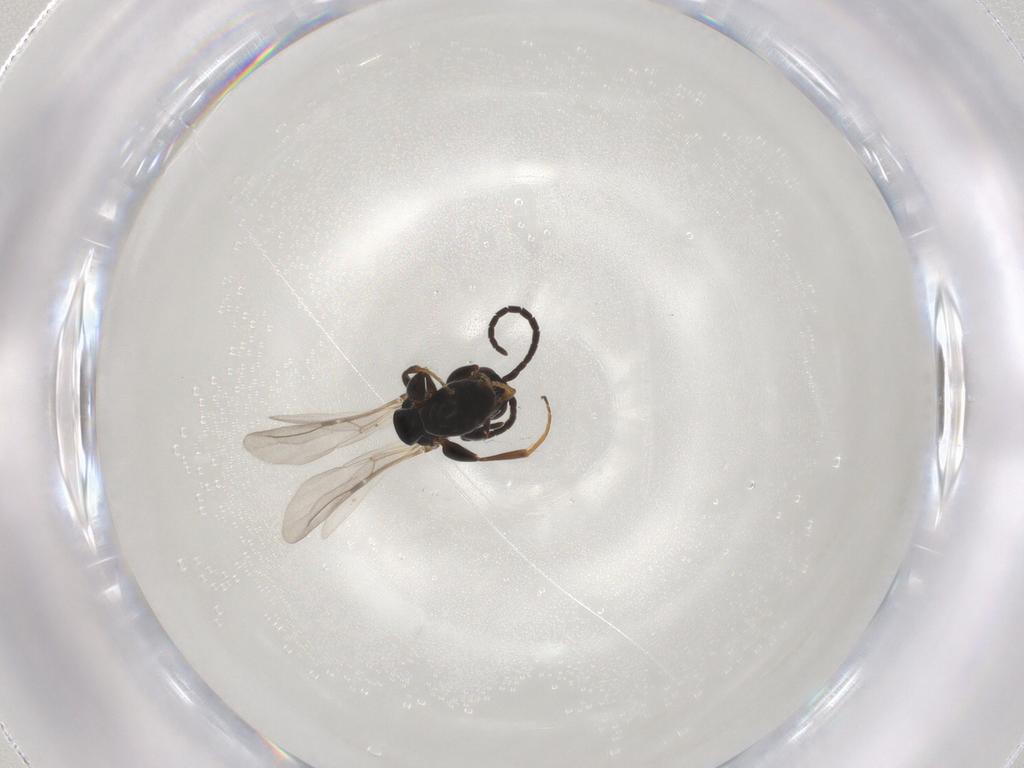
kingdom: Animalia
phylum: Arthropoda
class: Insecta
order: Hymenoptera
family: Bethylidae
